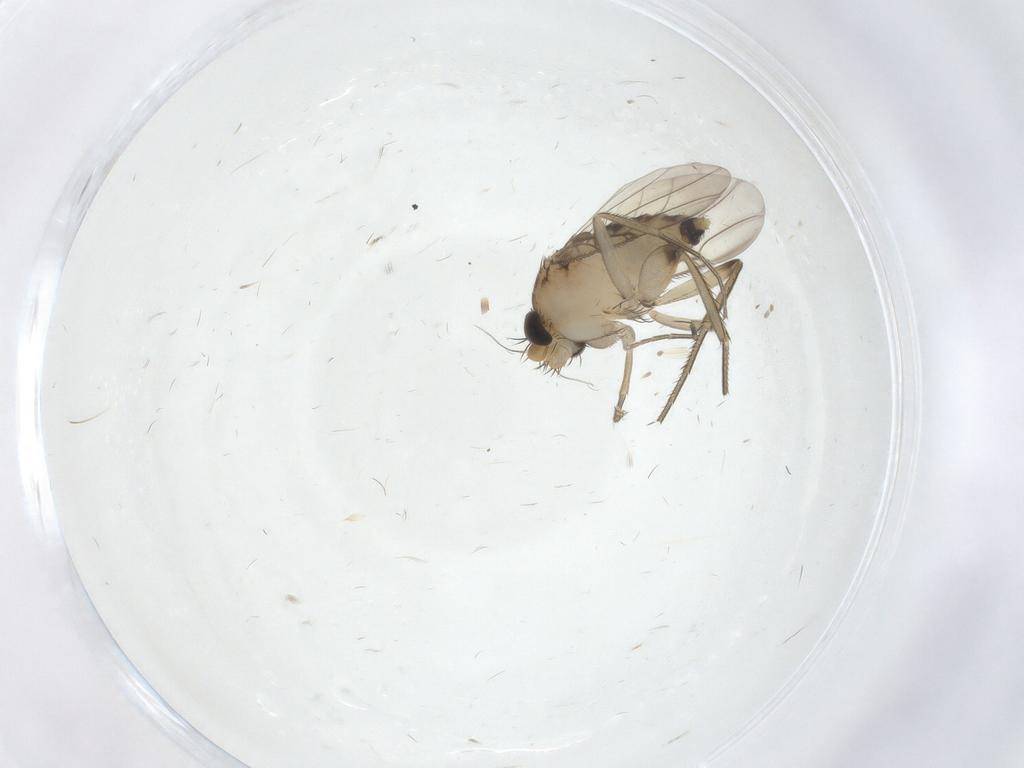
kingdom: Animalia
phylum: Arthropoda
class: Insecta
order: Diptera
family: Phoridae
